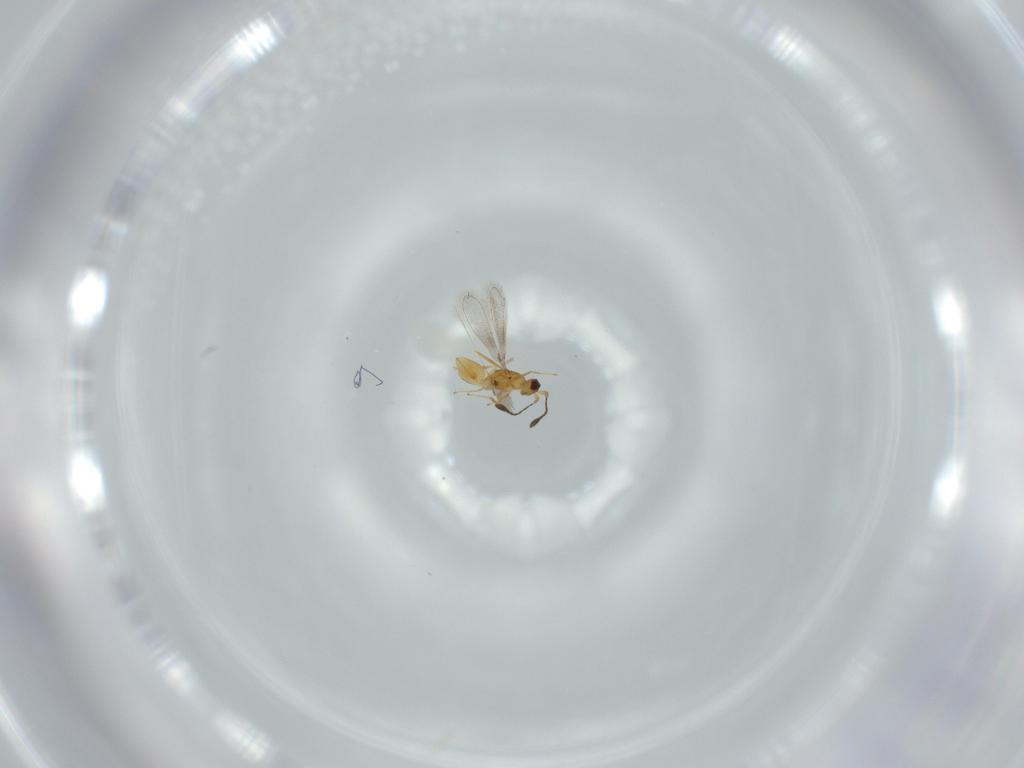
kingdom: Animalia
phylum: Arthropoda
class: Insecta
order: Hymenoptera
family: Mymaridae
